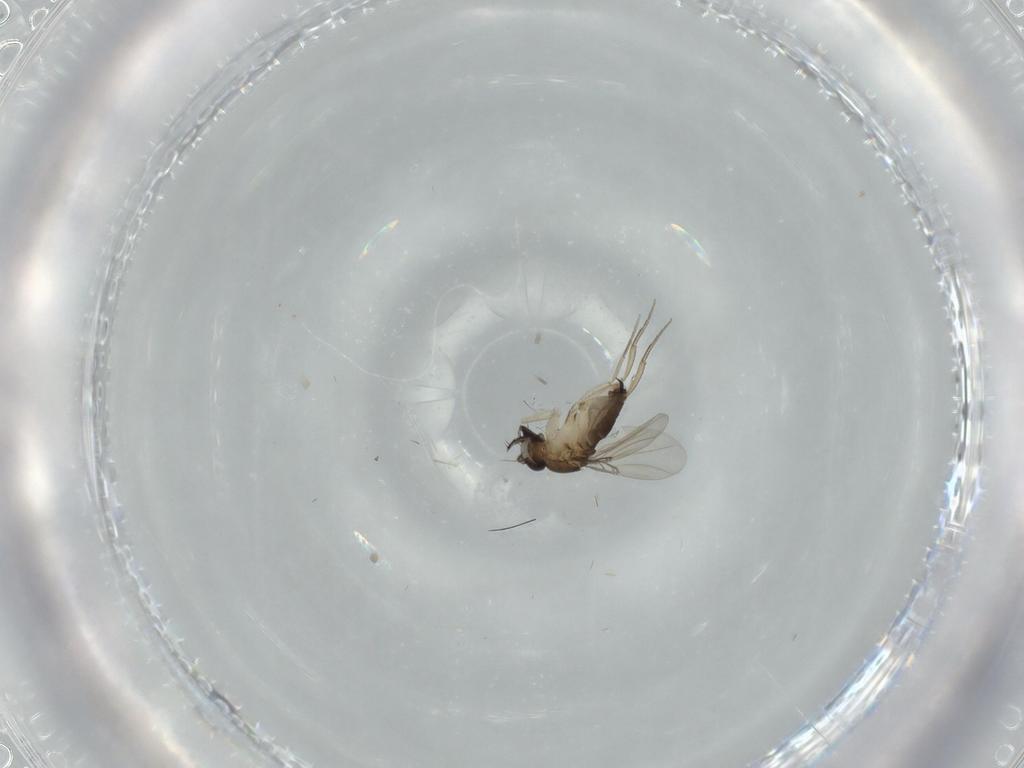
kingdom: Animalia
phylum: Arthropoda
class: Insecta
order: Diptera
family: Phoridae
